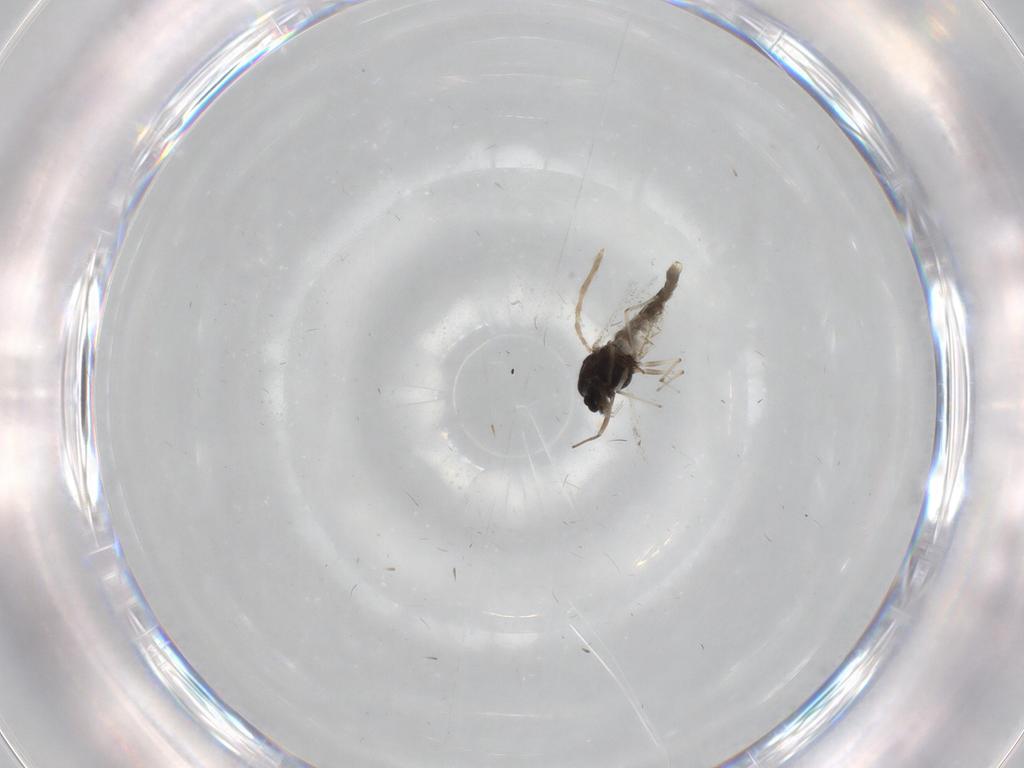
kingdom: Animalia
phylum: Arthropoda
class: Insecta
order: Diptera
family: Chironomidae
